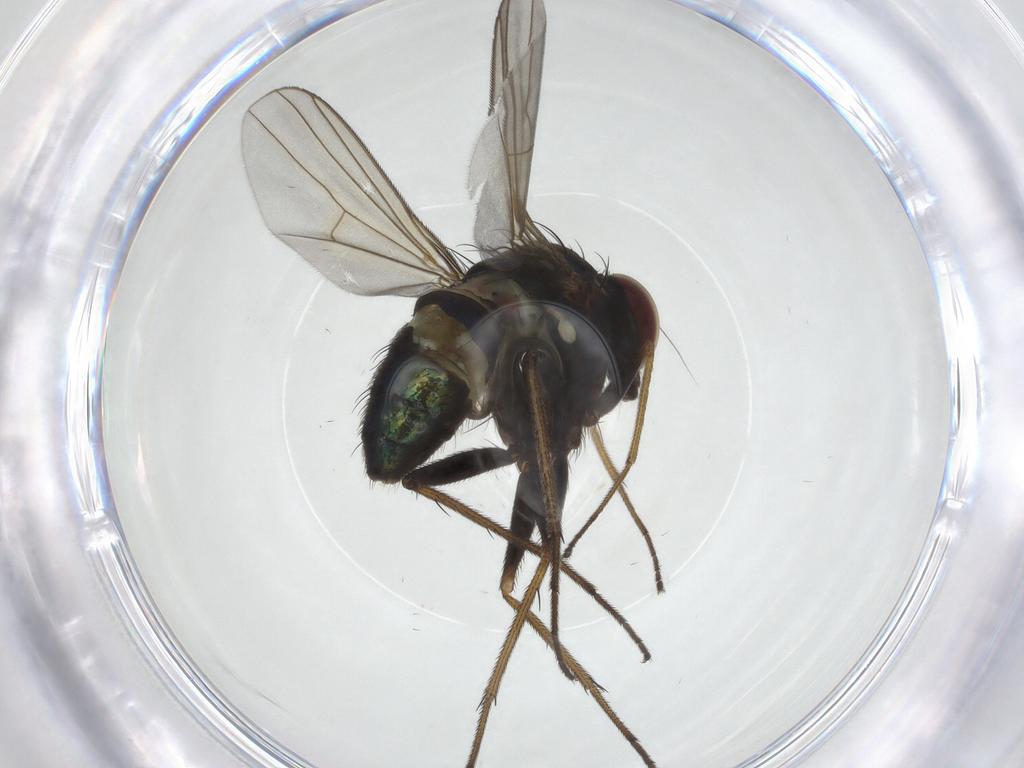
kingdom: Animalia
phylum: Arthropoda
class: Insecta
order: Diptera
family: Dolichopodidae
